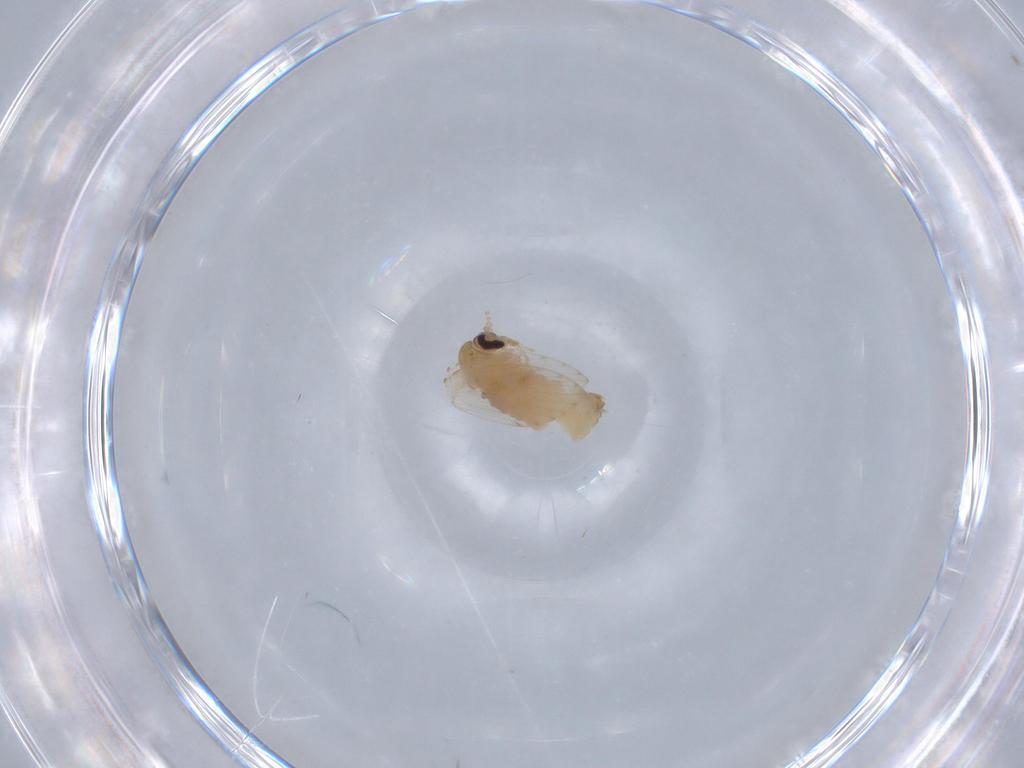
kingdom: Animalia
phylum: Arthropoda
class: Insecta
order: Diptera
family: Psychodidae
